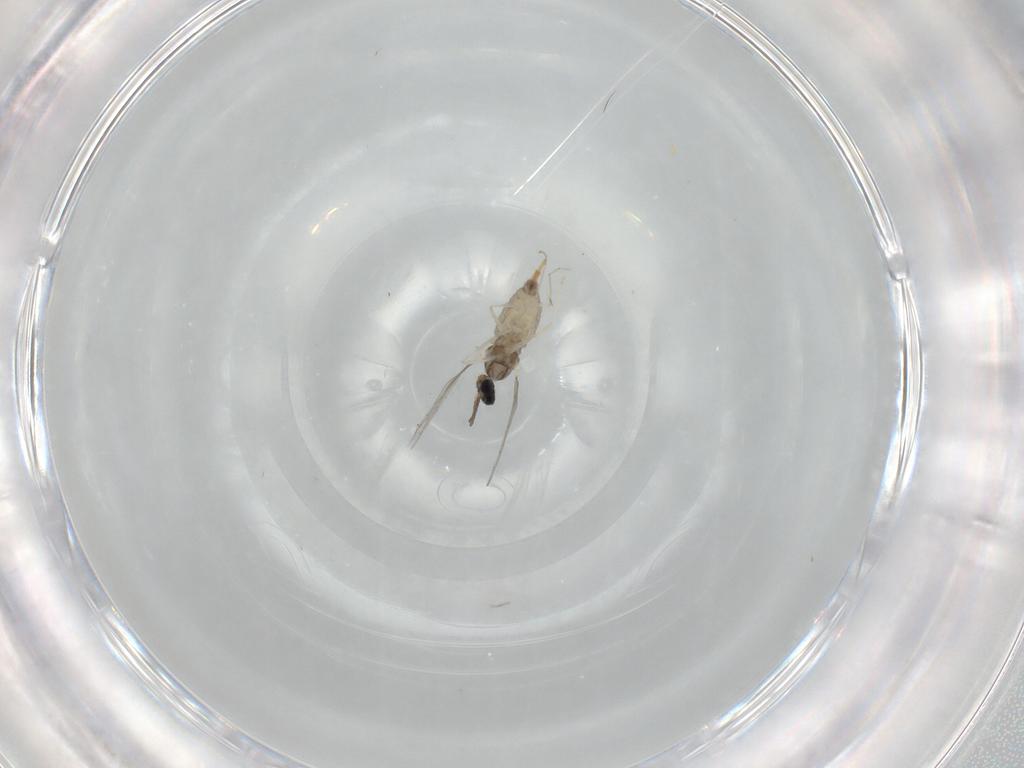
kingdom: Animalia
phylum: Arthropoda
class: Insecta
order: Diptera
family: Cecidomyiidae
